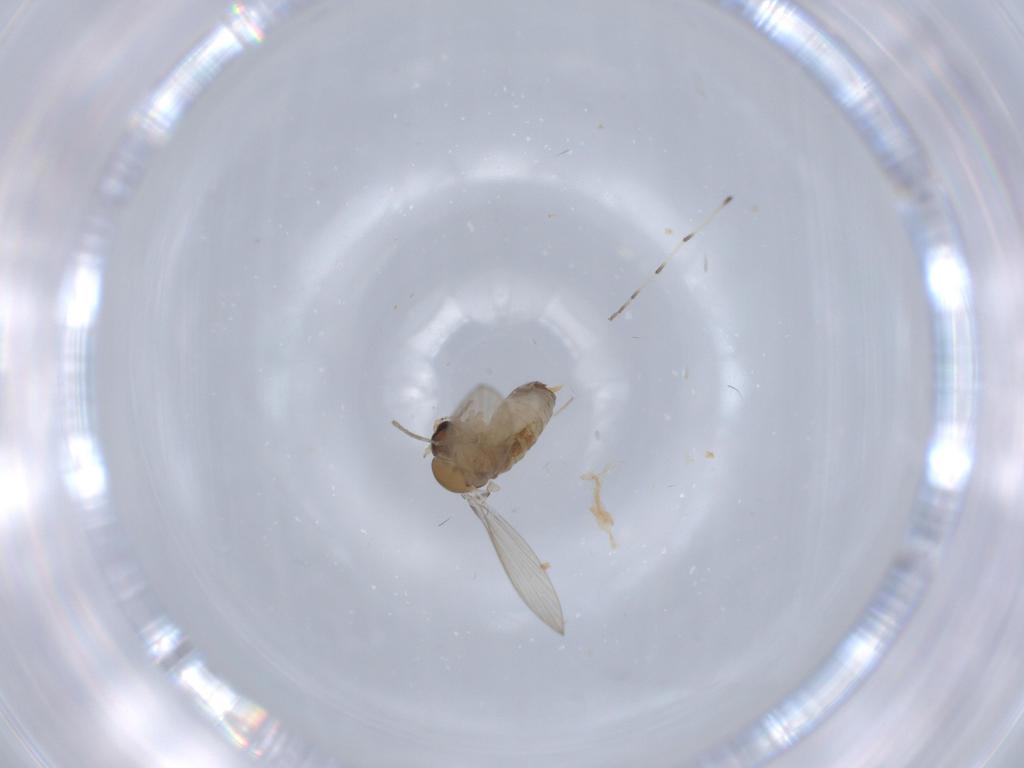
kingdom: Animalia
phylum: Arthropoda
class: Insecta
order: Diptera
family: Psychodidae
